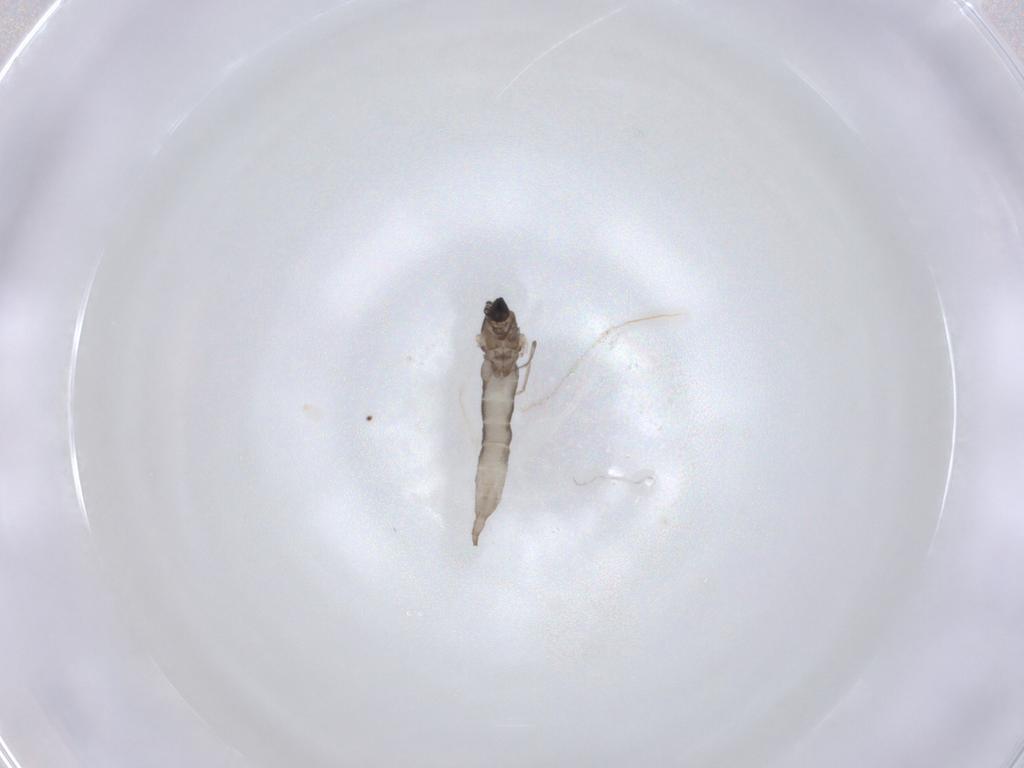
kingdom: Animalia
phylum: Arthropoda
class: Insecta
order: Diptera
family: Cecidomyiidae
